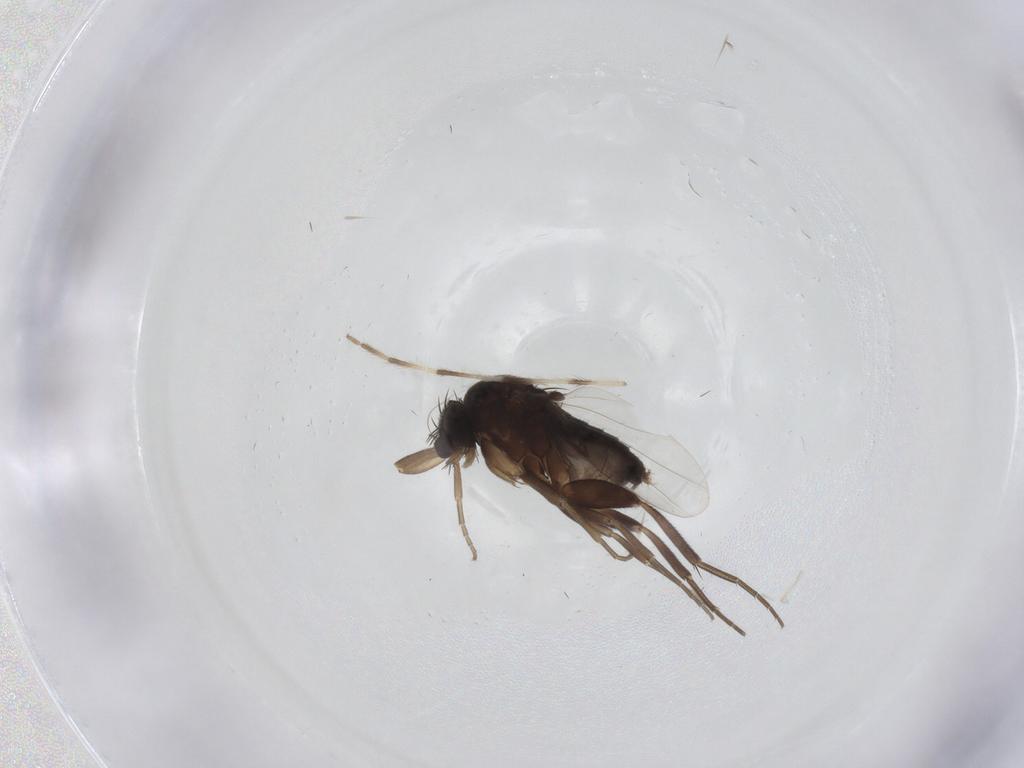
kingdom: Animalia
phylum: Arthropoda
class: Insecta
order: Diptera
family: Phoridae
